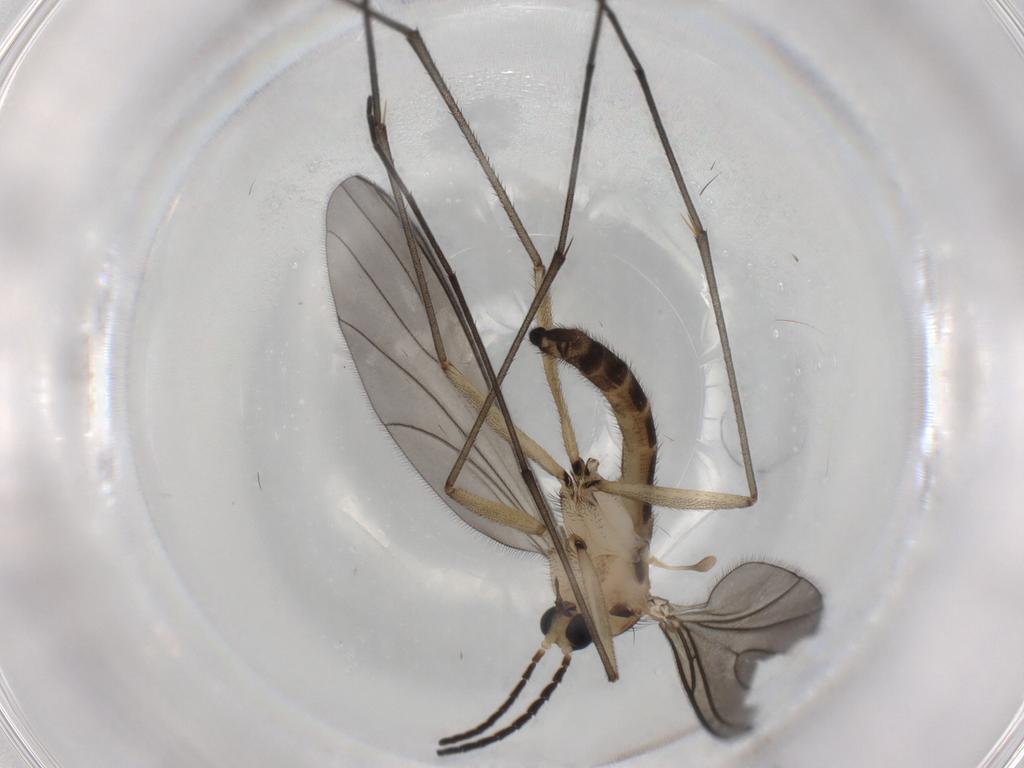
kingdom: Animalia
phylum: Arthropoda
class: Insecta
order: Diptera
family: Sciaridae
